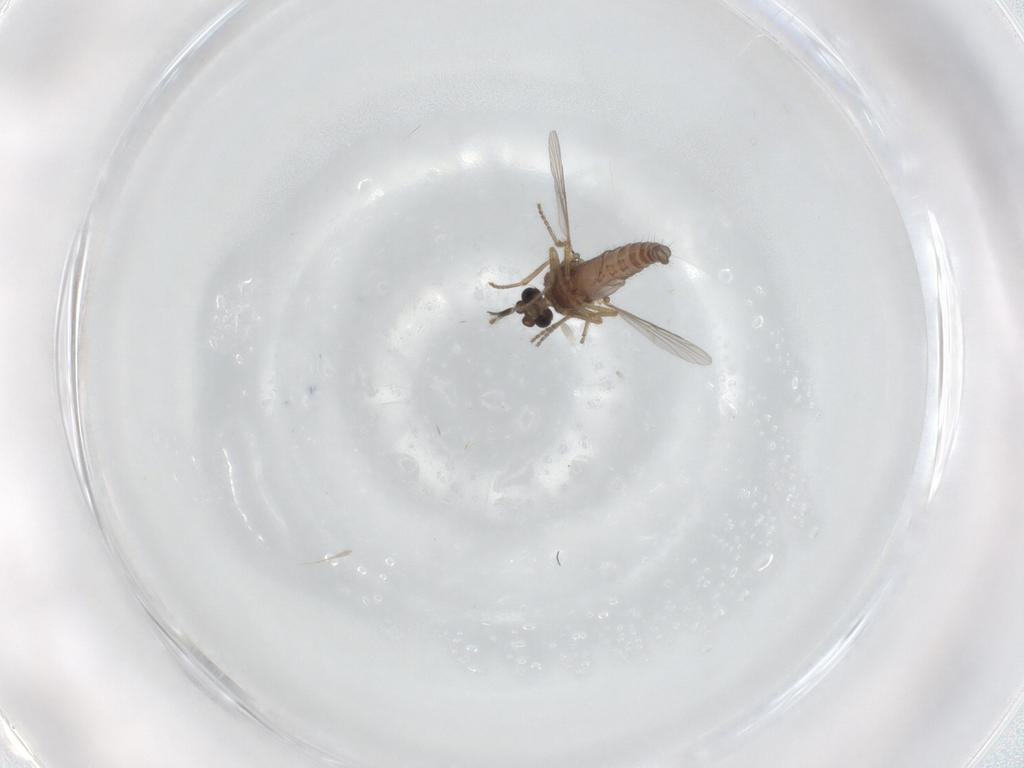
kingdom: Animalia
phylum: Arthropoda
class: Insecta
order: Diptera
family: Ceratopogonidae
